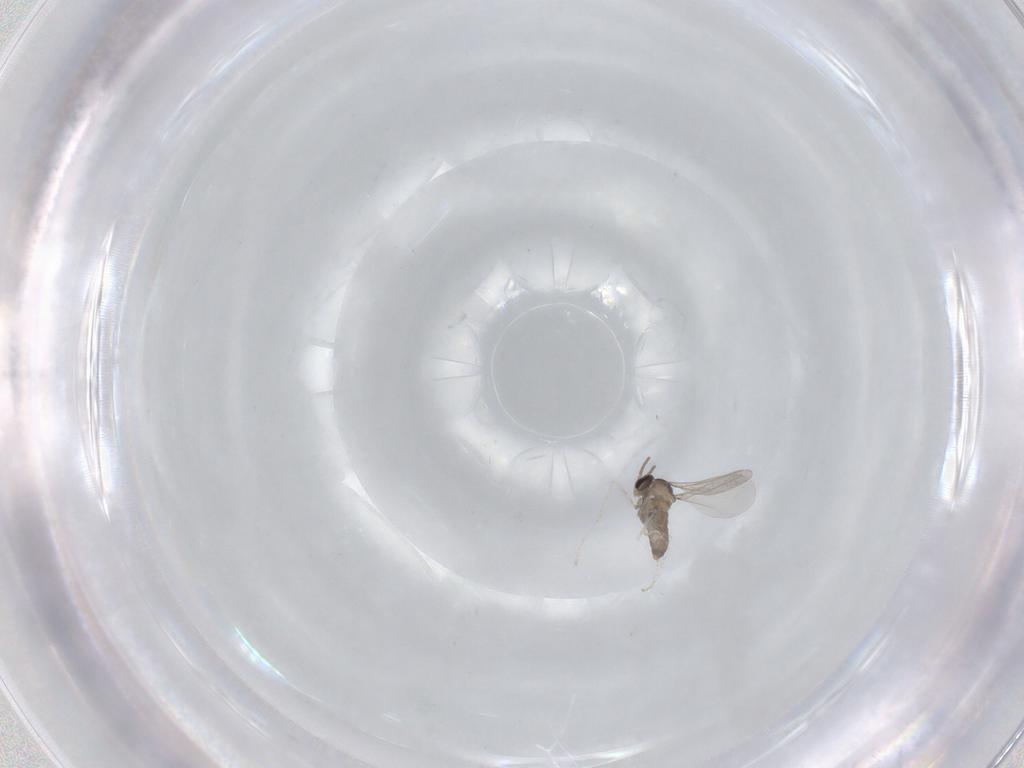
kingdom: Animalia
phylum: Arthropoda
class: Insecta
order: Diptera
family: Cecidomyiidae
